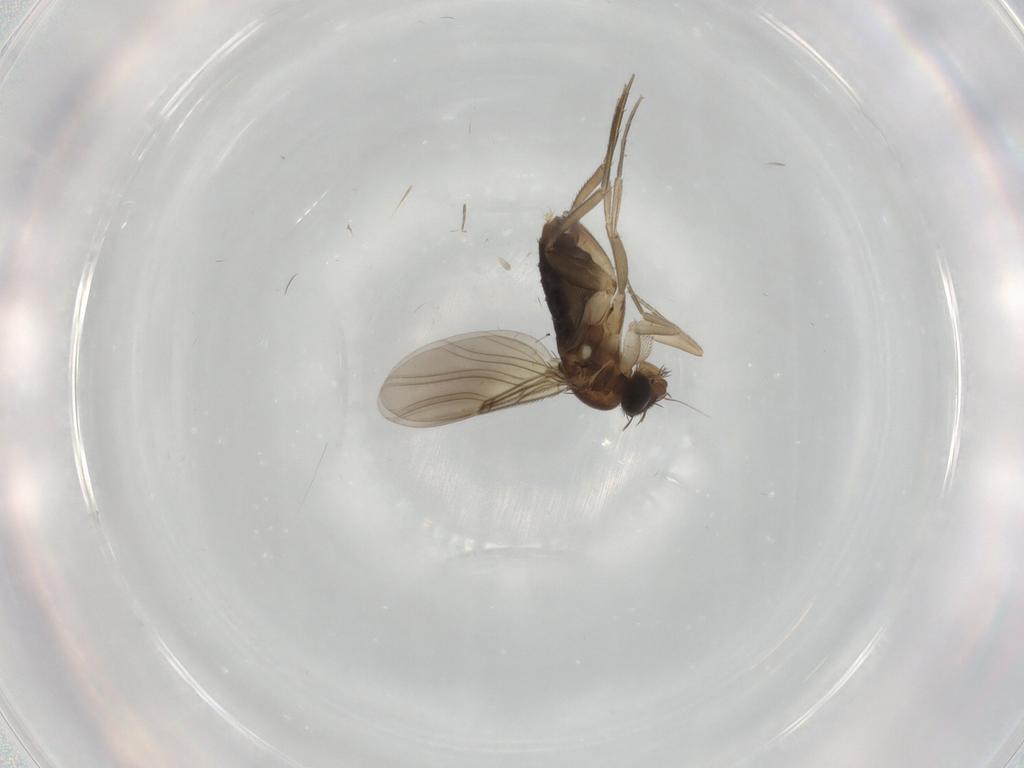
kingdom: Animalia
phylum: Arthropoda
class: Insecta
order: Diptera
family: Phoridae
